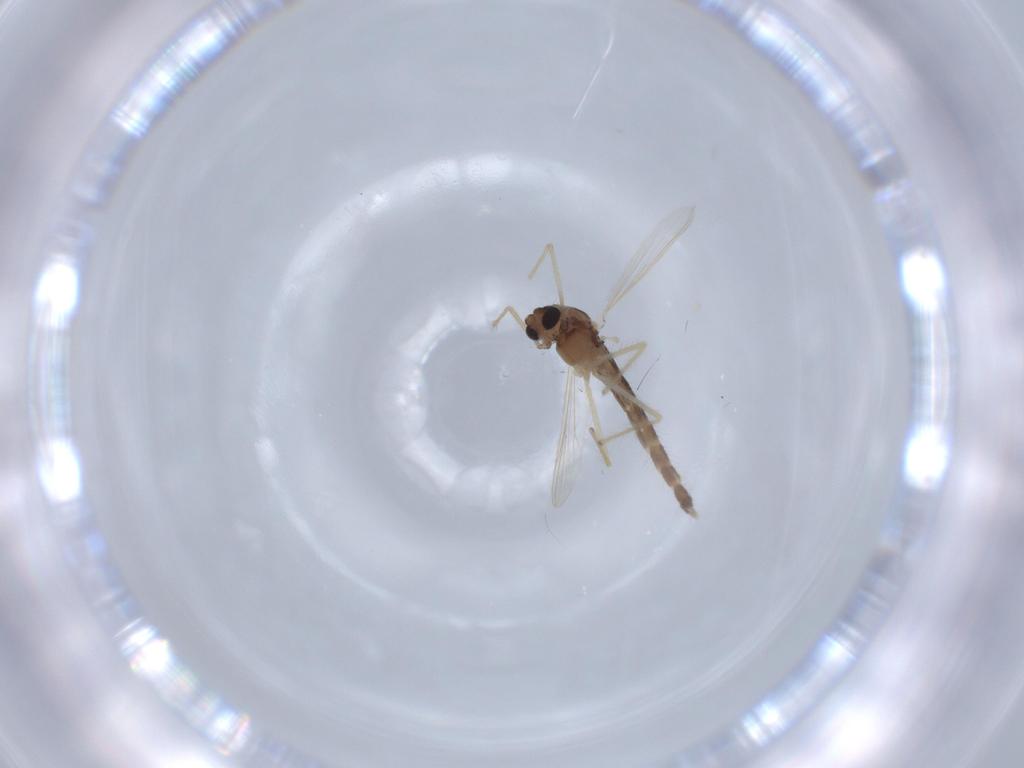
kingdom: Animalia
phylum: Arthropoda
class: Insecta
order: Diptera
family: Chironomidae
